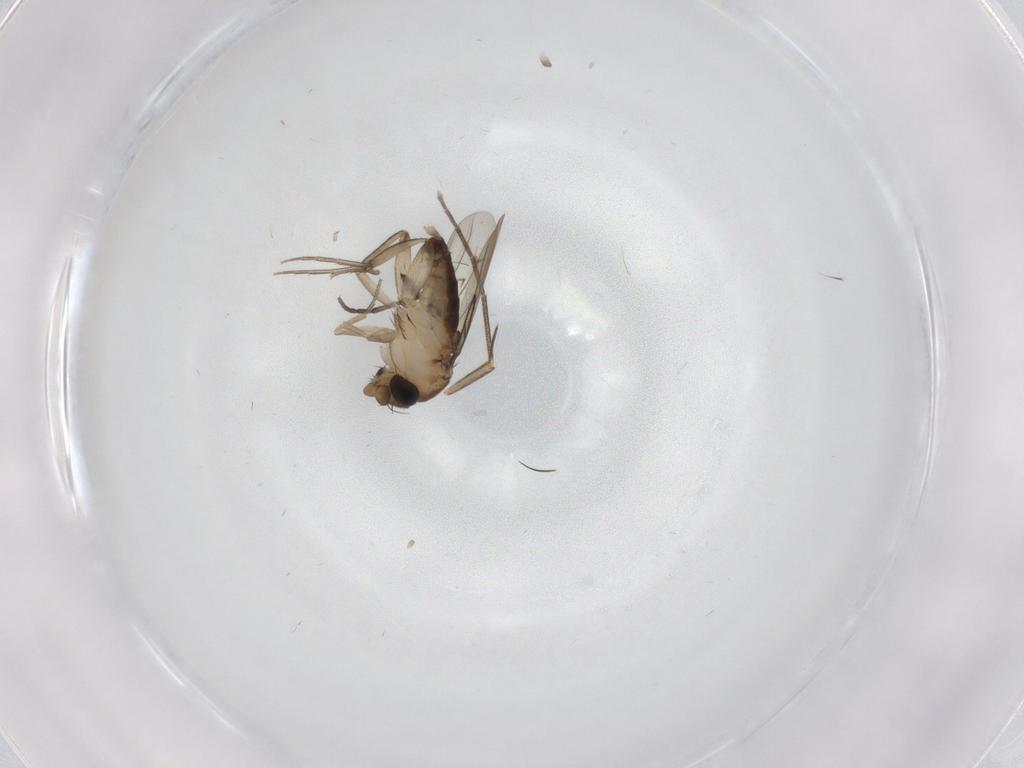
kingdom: Animalia
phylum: Arthropoda
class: Insecta
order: Diptera
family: Phoridae
